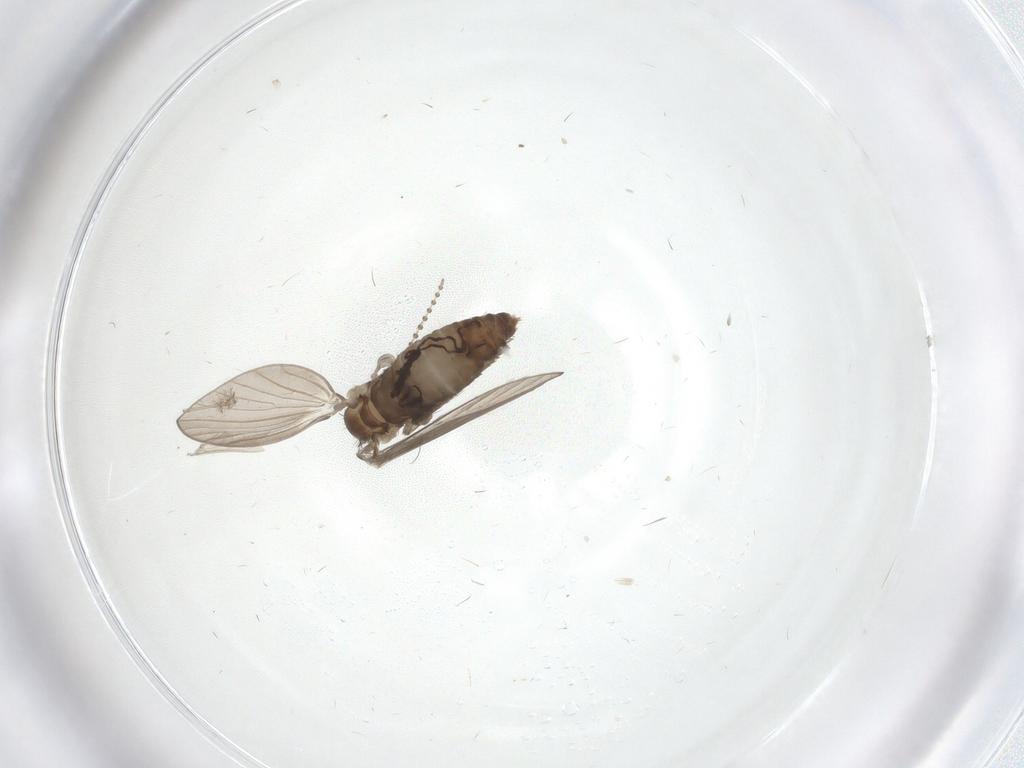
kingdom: Animalia
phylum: Arthropoda
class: Insecta
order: Diptera
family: Psychodidae
